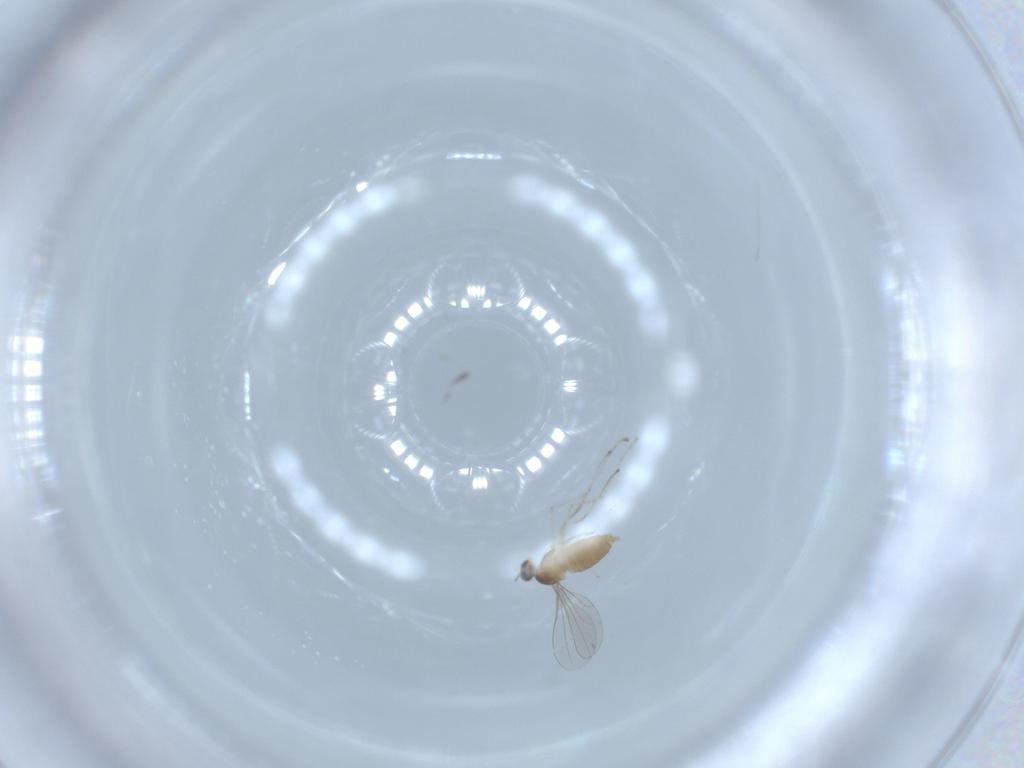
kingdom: Animalia
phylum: Arthropoda
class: Insecta
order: Diptera
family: Cecidomyiidae
